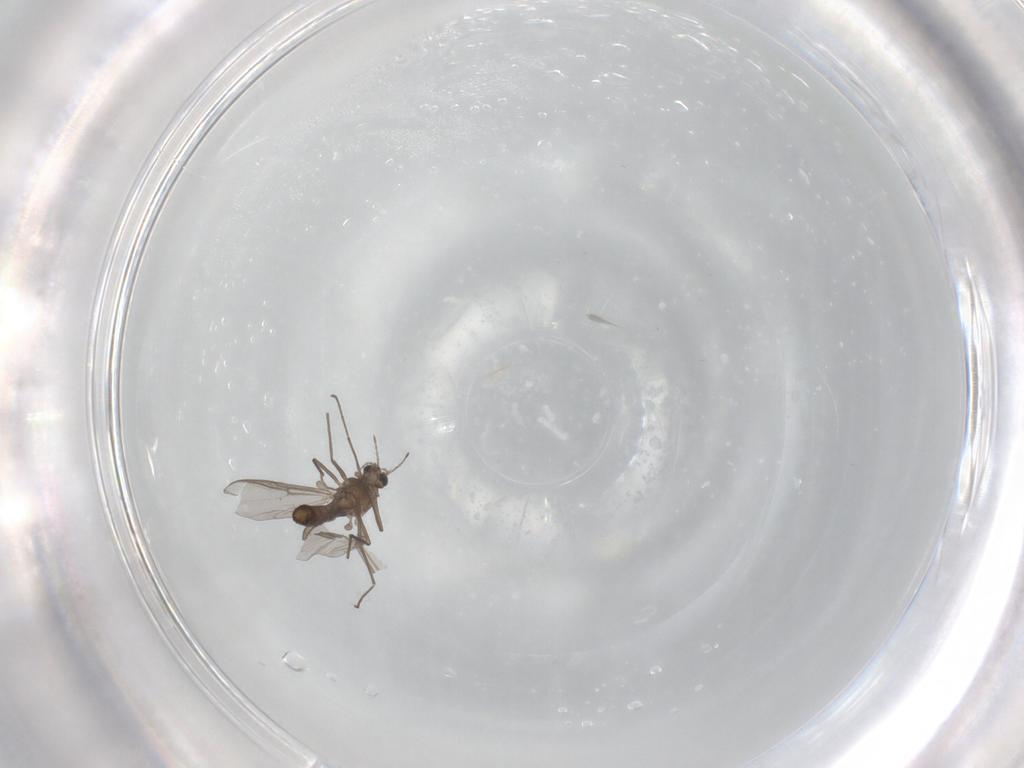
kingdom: Animalia
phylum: Arthropoda
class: Insecta
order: Diptera
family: Chironomidae
